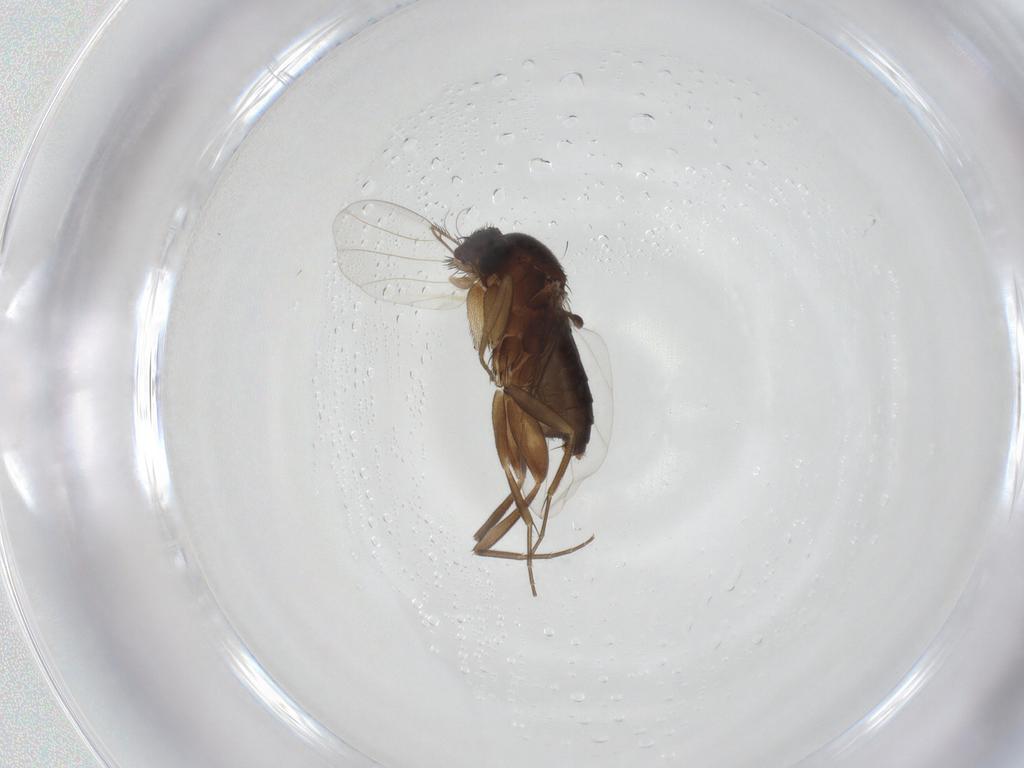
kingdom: Animalia
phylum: Arthropoda
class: Insecta
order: Diptera
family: Phoridae
